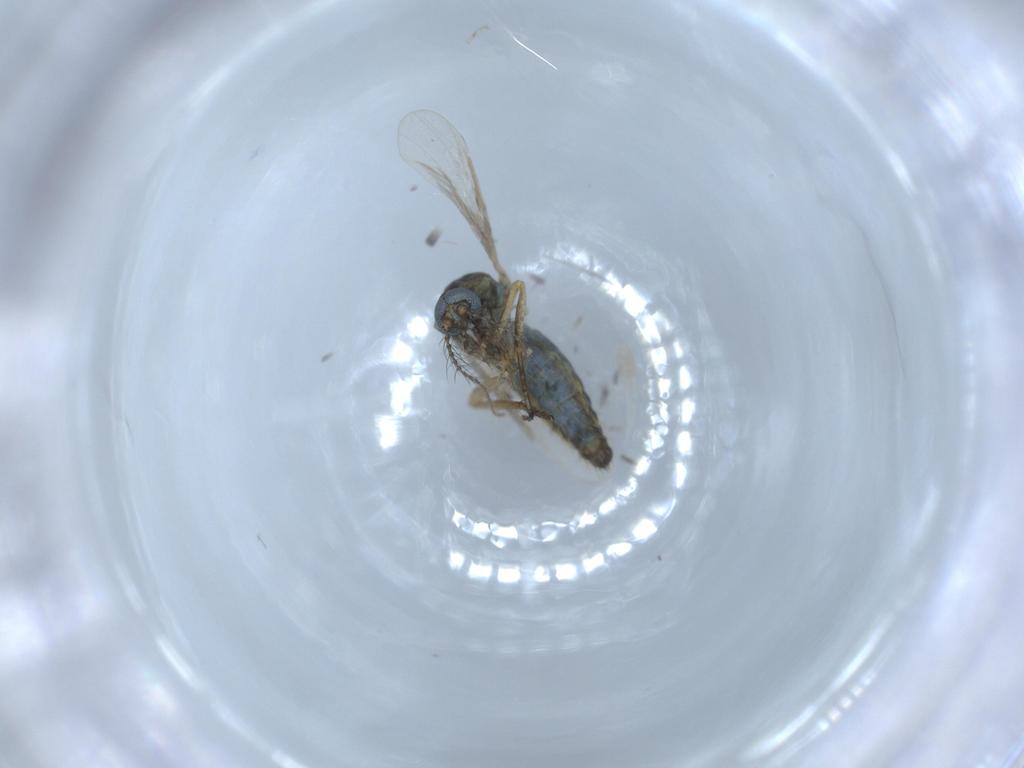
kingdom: Animalia
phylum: Arthropoda
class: Insecta
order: Diptera
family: Ceratopogonidae
